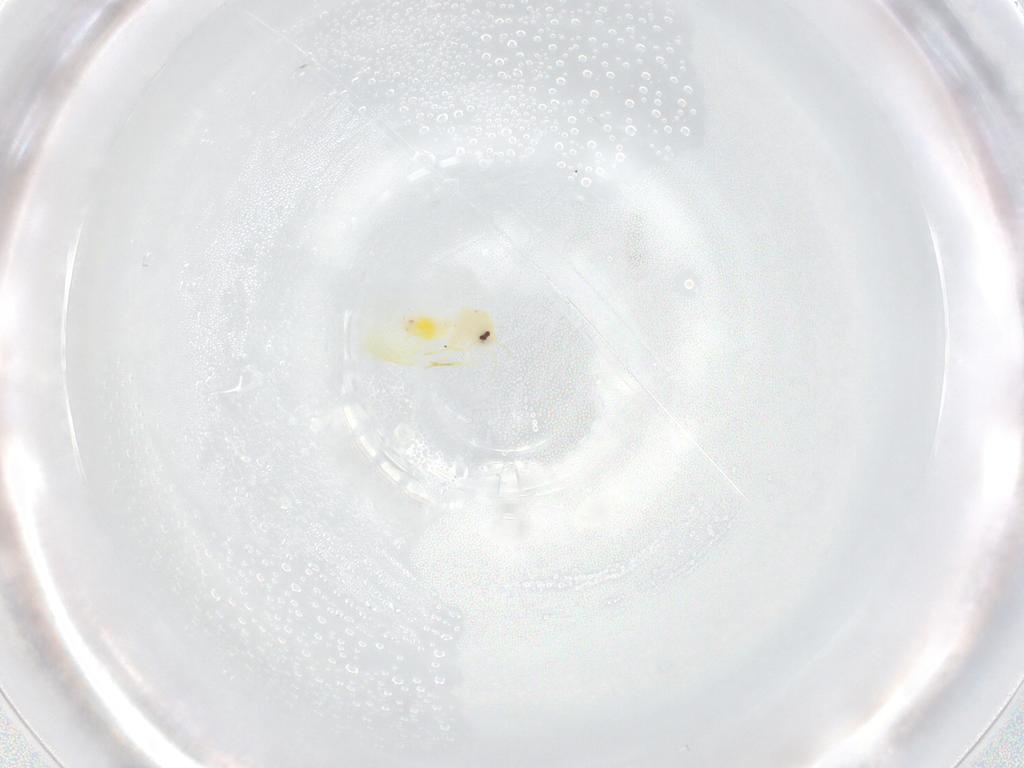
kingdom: Animalia
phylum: Arthropoda
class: Insecta
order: Hemiptera
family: Aleyrodidae
